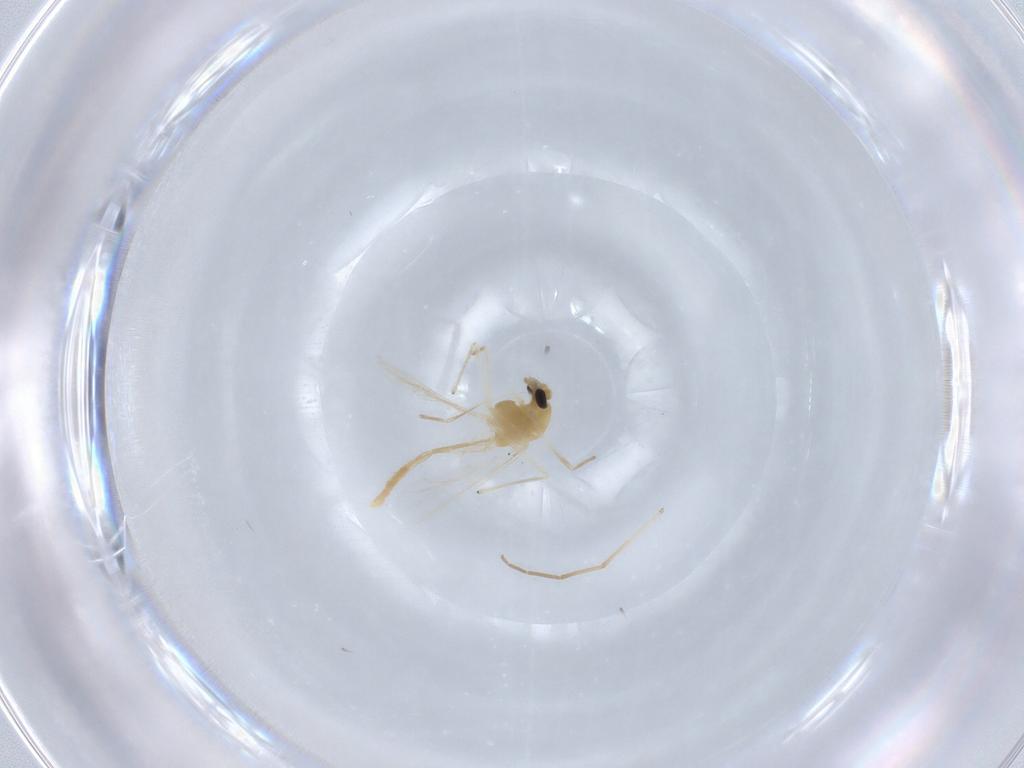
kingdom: Animalia
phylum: Arthropoda
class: Insecta
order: Diptera
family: Chironomidae
